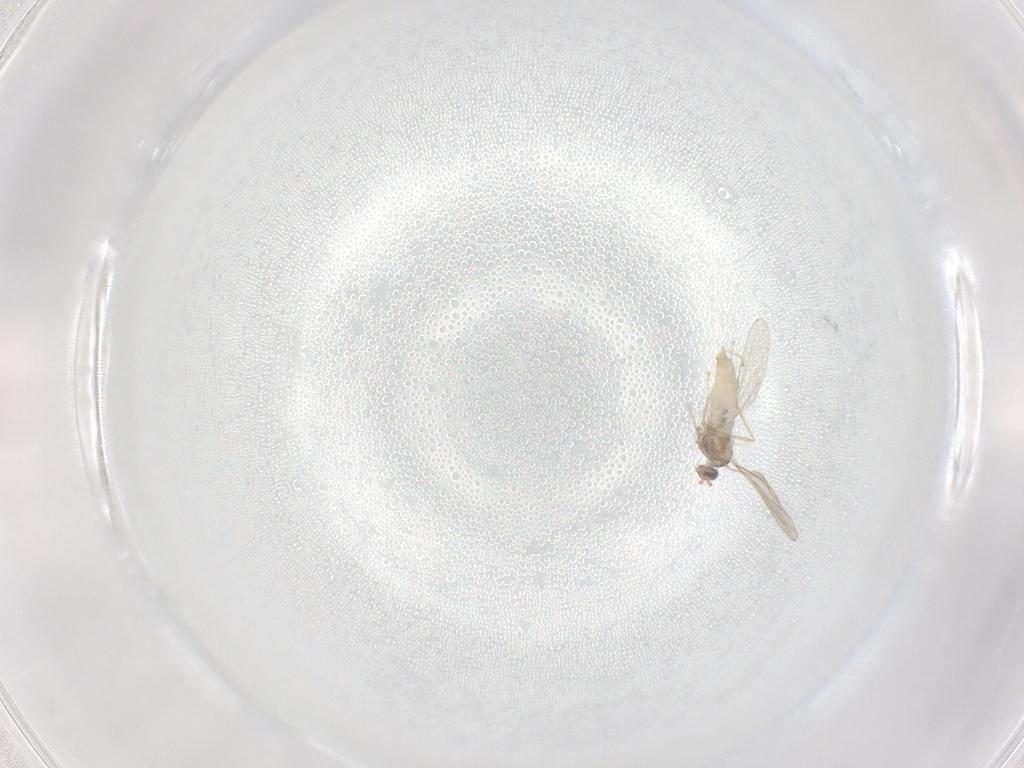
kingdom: Animalia
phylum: Arthropoda
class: Insecta
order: Diptera
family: Cecidomyiidae
